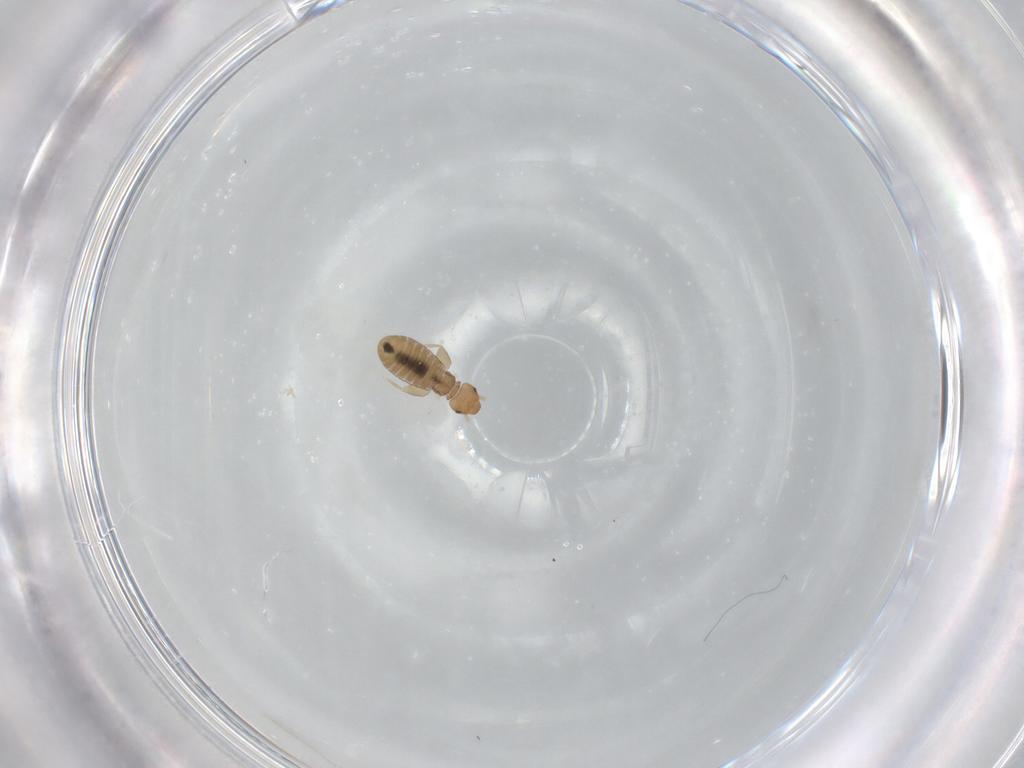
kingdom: Animalia
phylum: Arthropoda
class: Insecta
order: Psocodea
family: Liposcelididae
